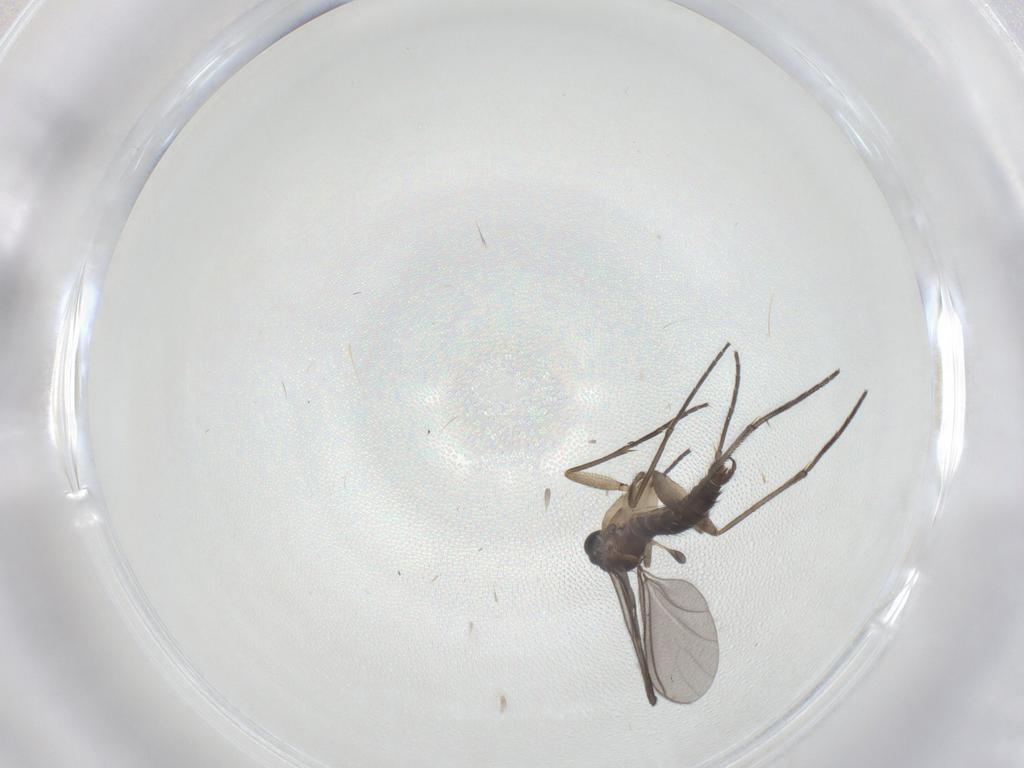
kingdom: Animalia
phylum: Arthropoda
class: Insecta
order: Diptera
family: Sciaridae
